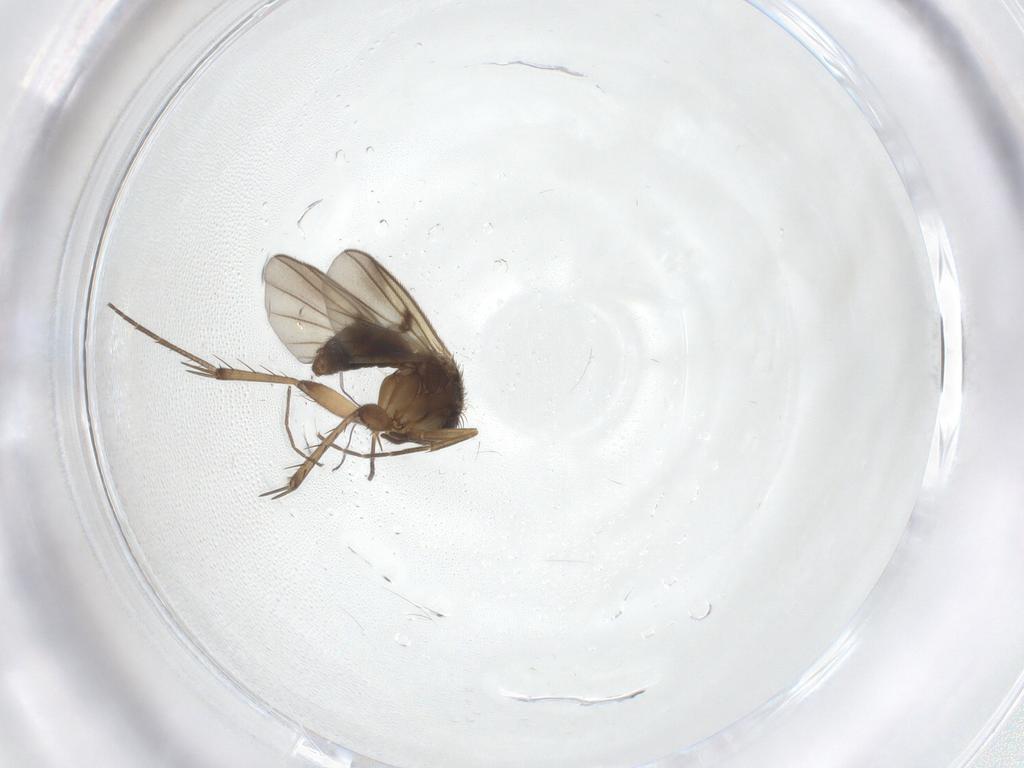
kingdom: Animalia
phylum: Arthropoda
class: Insecta
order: Diptera
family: Mycetophilidae
